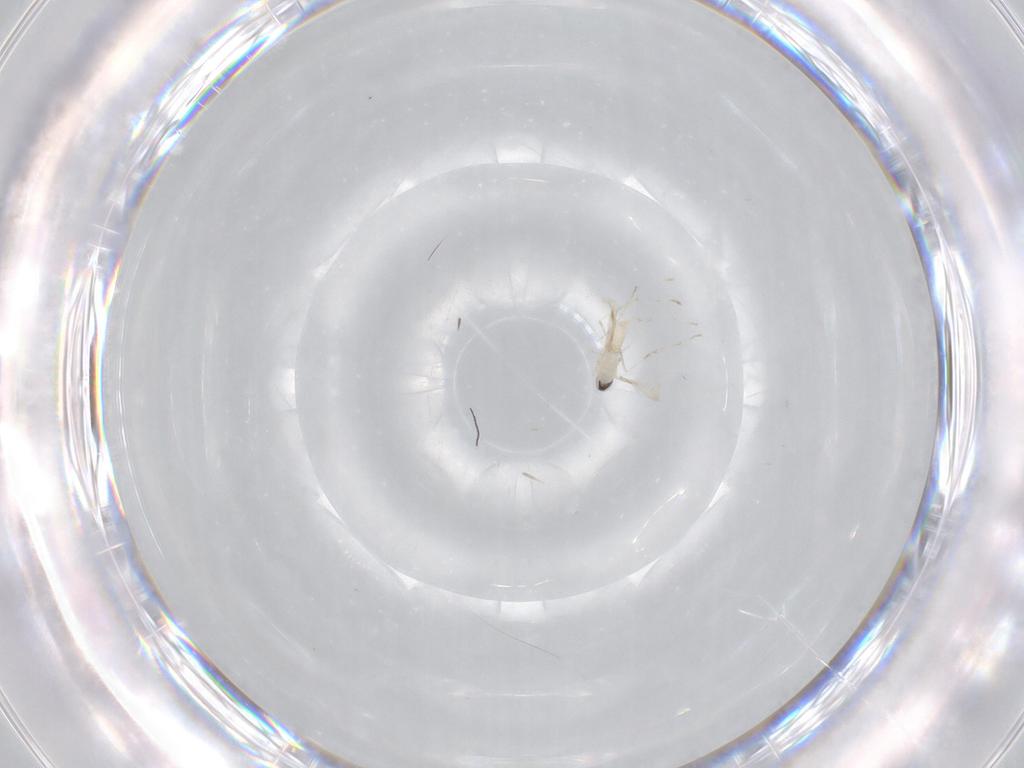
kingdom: Animalia
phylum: Arthropoda
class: Insecta
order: Diptera
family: Cecidomyiidae
